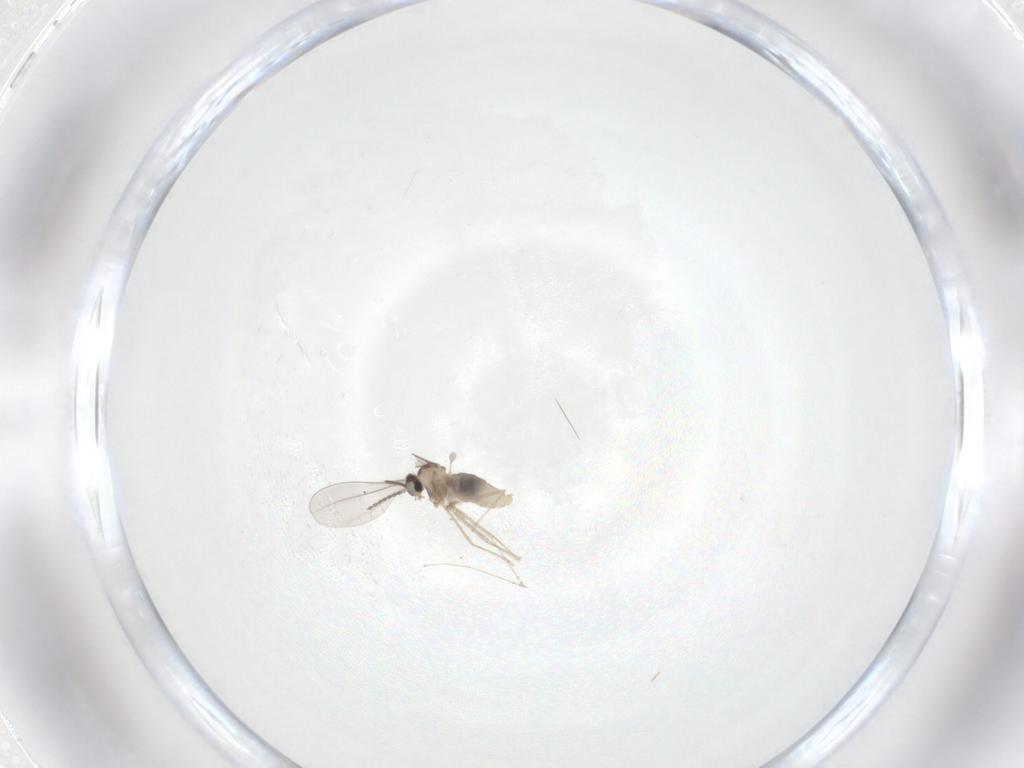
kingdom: Animalia
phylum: Arthropoda
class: Insecta
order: Diptera
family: Cecidomyiidae
